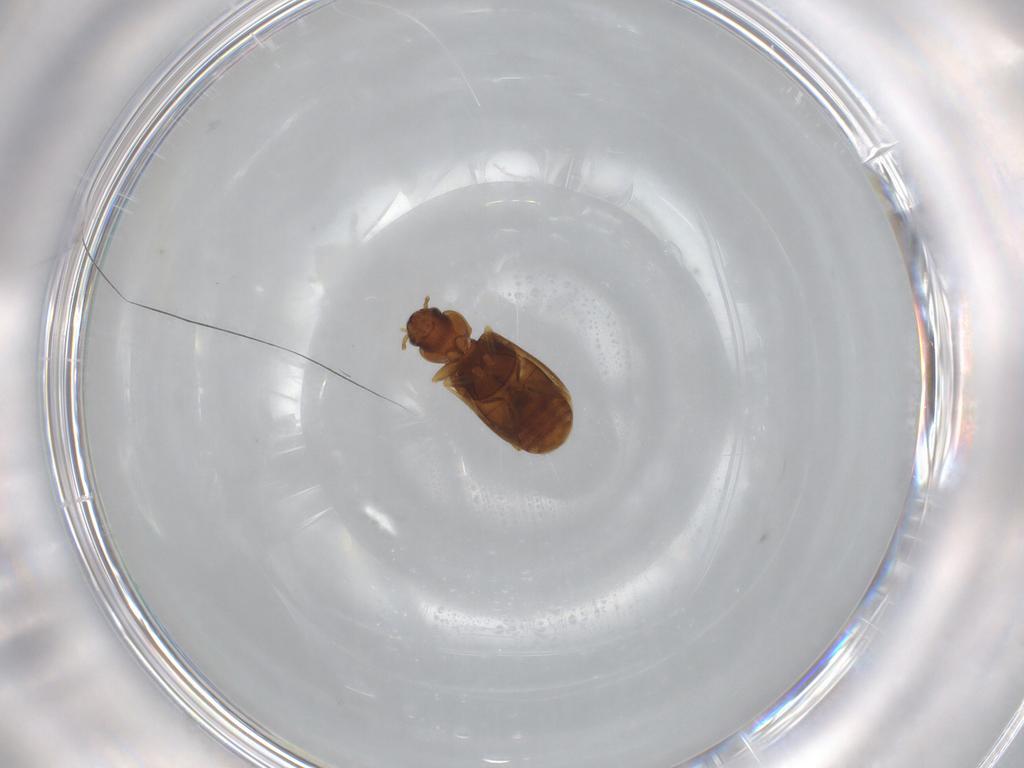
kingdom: Animalia
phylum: Arthropoda
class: Insecta
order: Coleoptera
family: Carabidae
